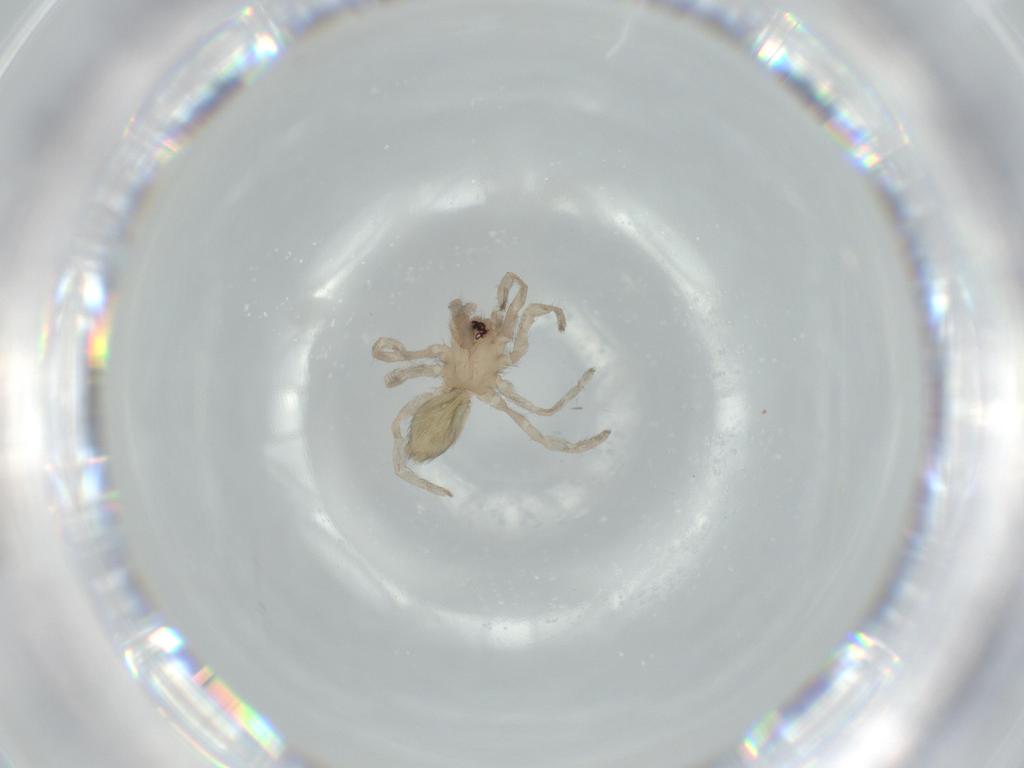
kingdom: Animalia
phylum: Arthropoda
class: Arachnida
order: Araneae
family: Gnaphosidae
